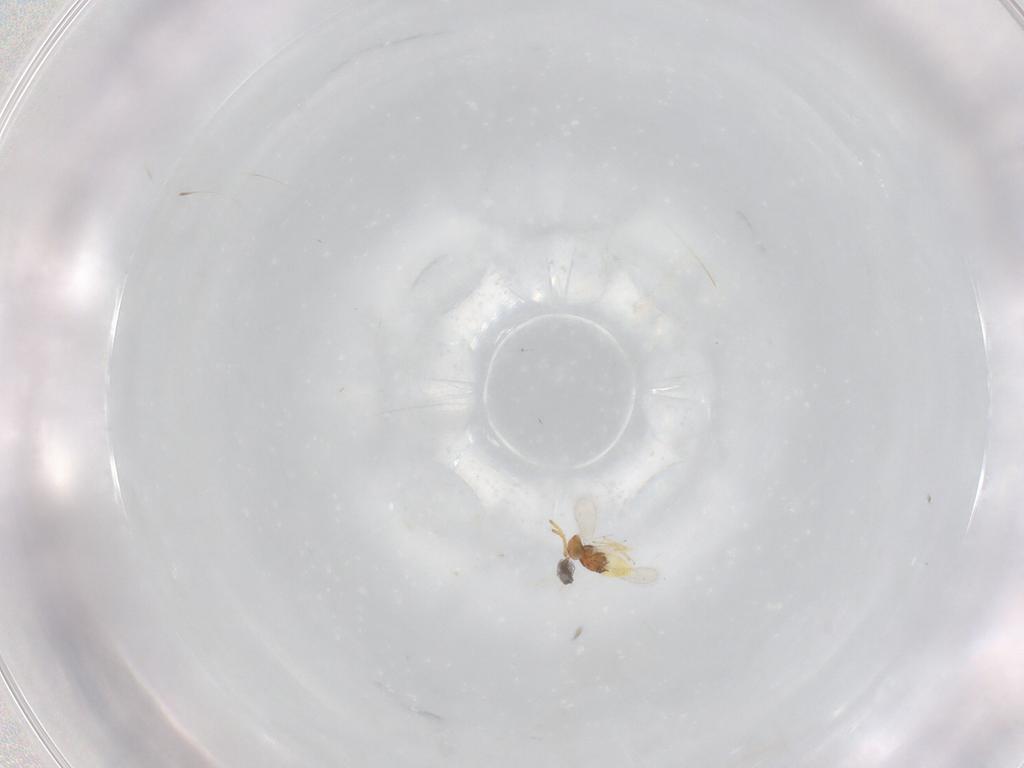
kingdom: Animalia
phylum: Arthropoda
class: Insecta
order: Hymenoptera
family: Aphelinidae
